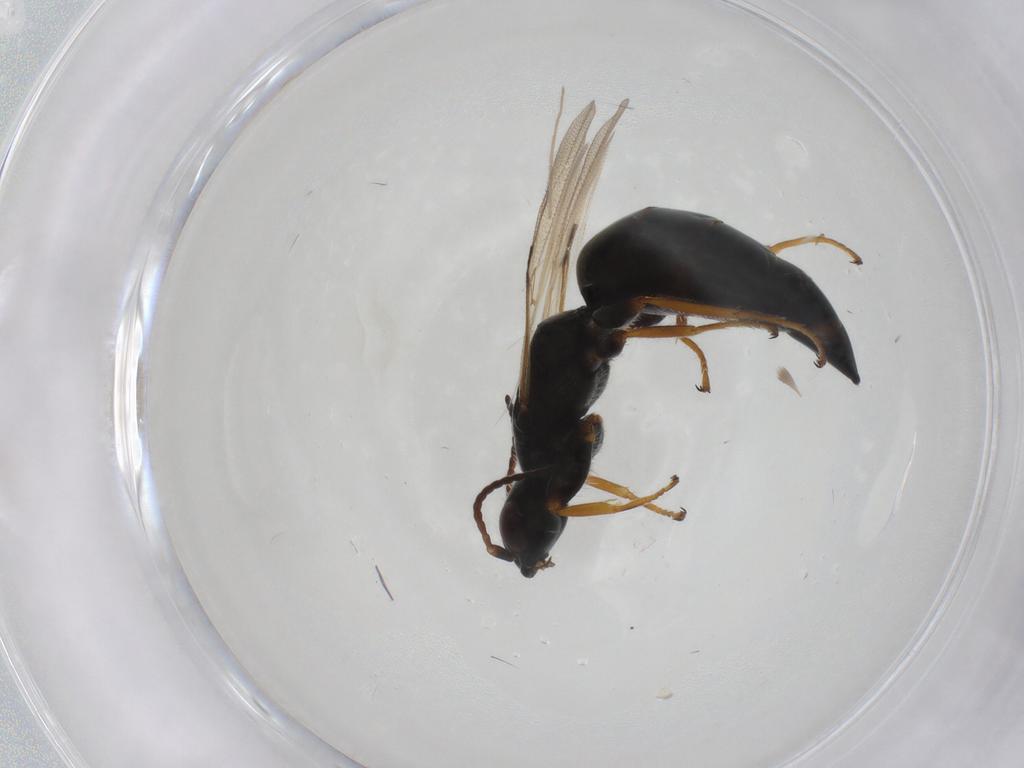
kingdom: Animalia
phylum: Arthropoda
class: Insecta
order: Hymenoptera
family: Bethylidae
